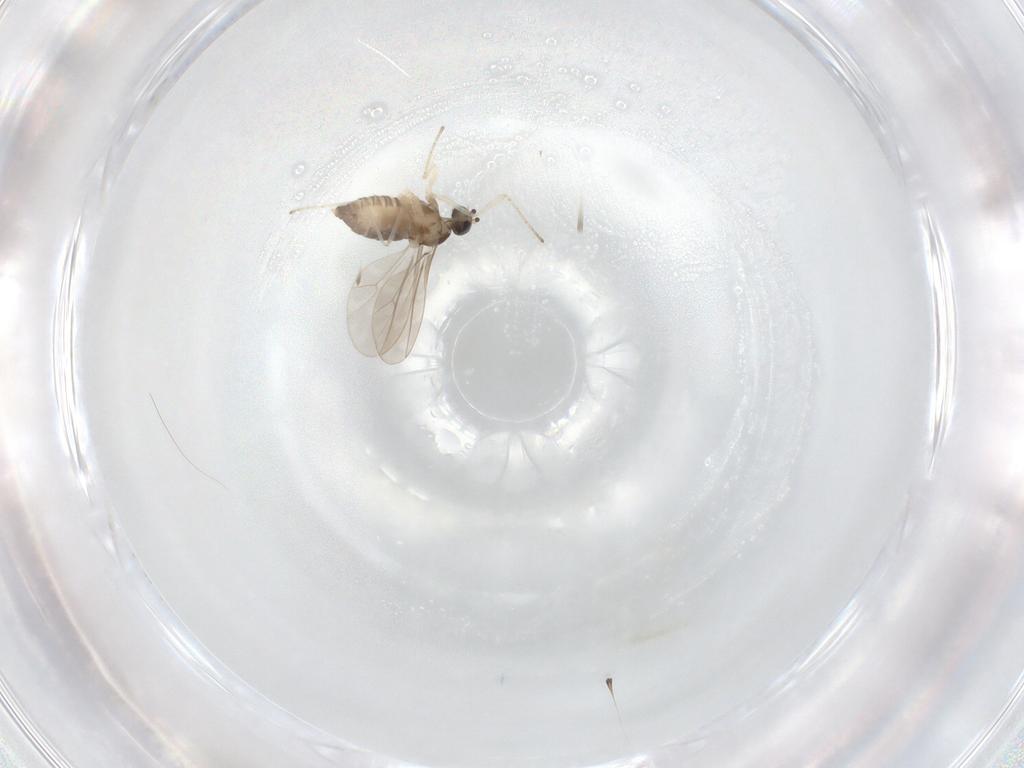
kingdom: Animalia
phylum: Arthropoda
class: Insecta
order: Diptera
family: Cecidomyiidae
